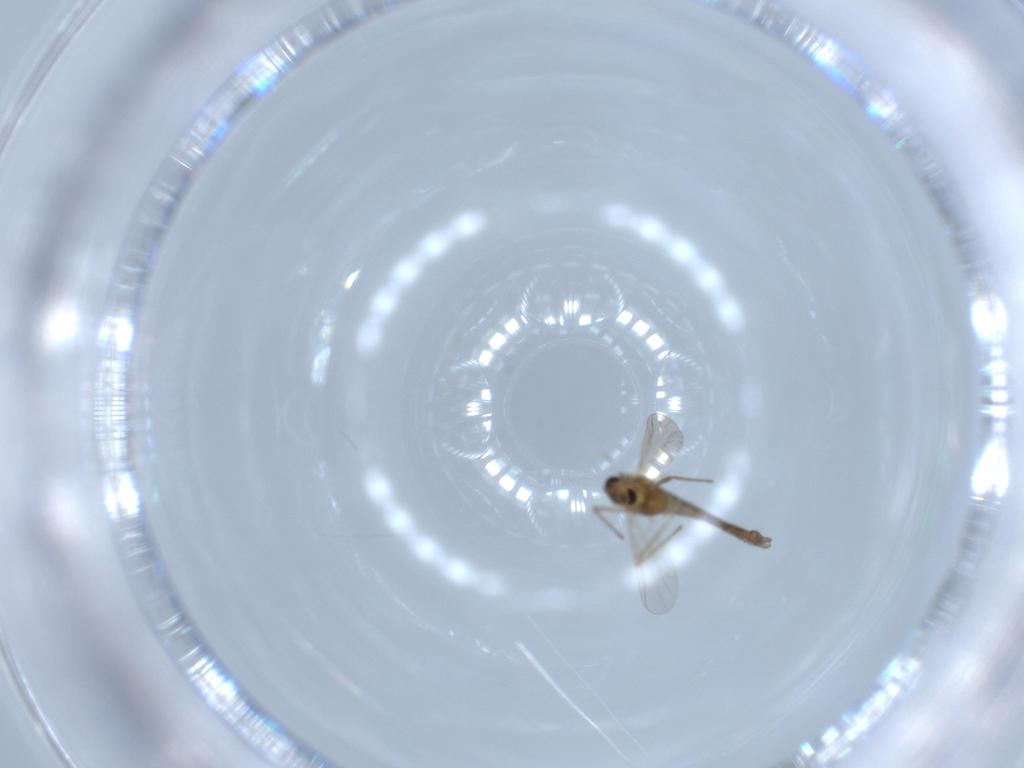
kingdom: Animalia
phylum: Arthropoda
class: Insecta
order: Diptera
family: Chironomidae
